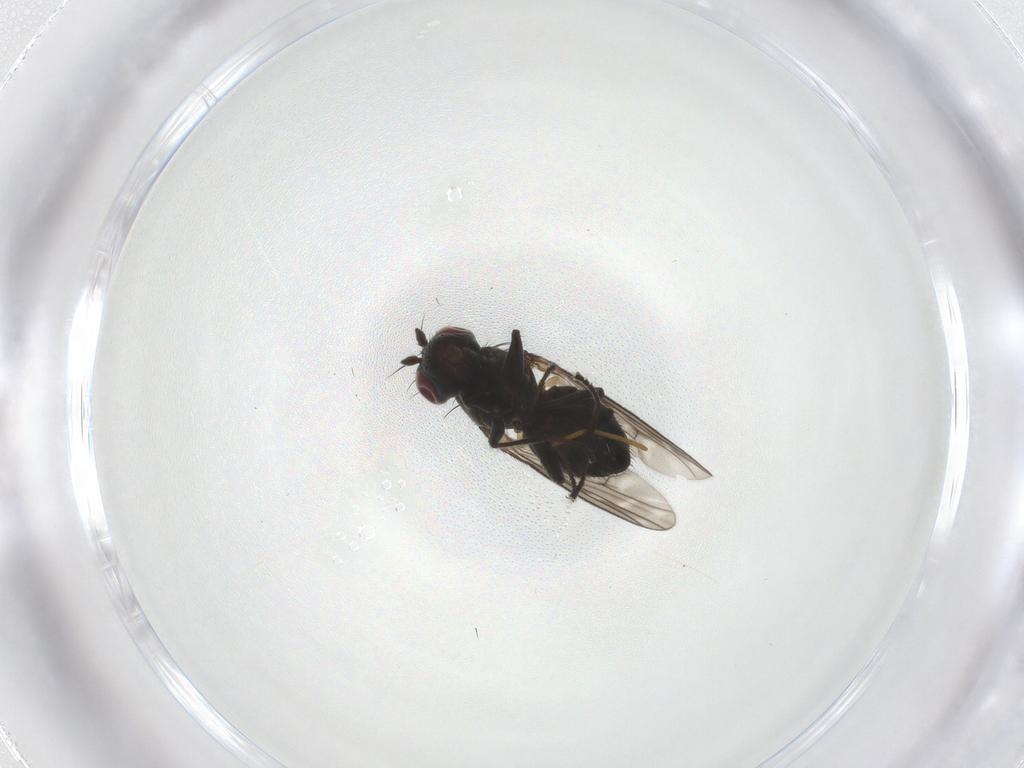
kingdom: Animalia
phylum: Arthropoda
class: Insecta
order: Diptera
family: Ephydridae
